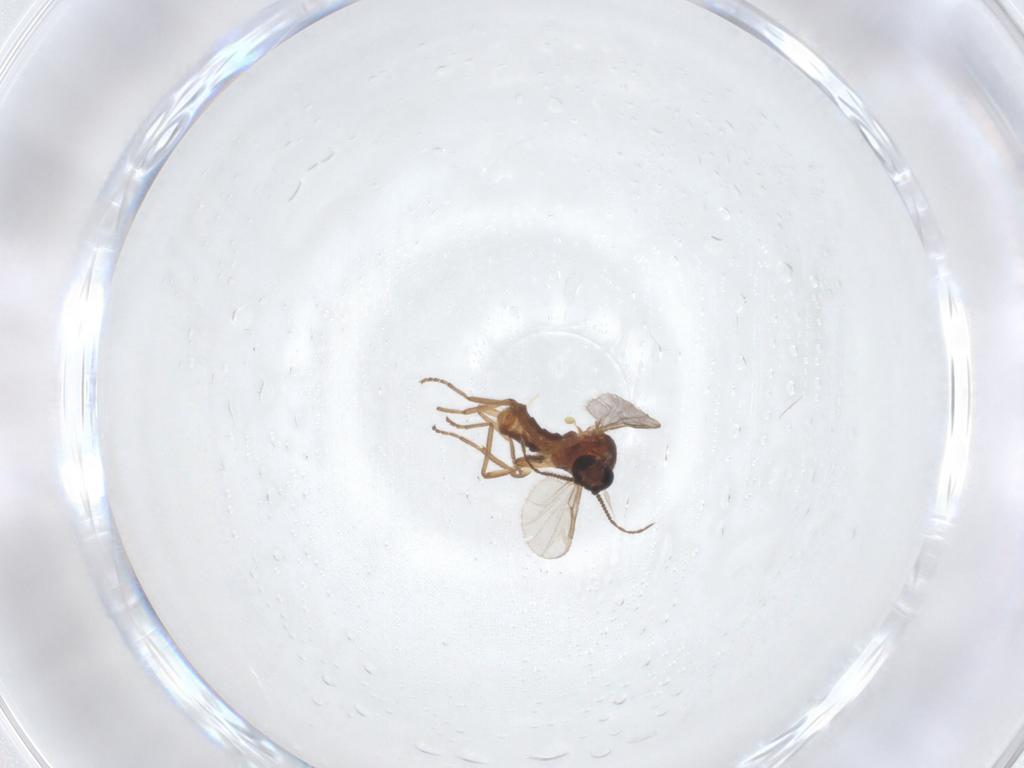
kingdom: Animalia
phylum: Arthropoda
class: Insecta
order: Diptera
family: Ceratopogonidae
